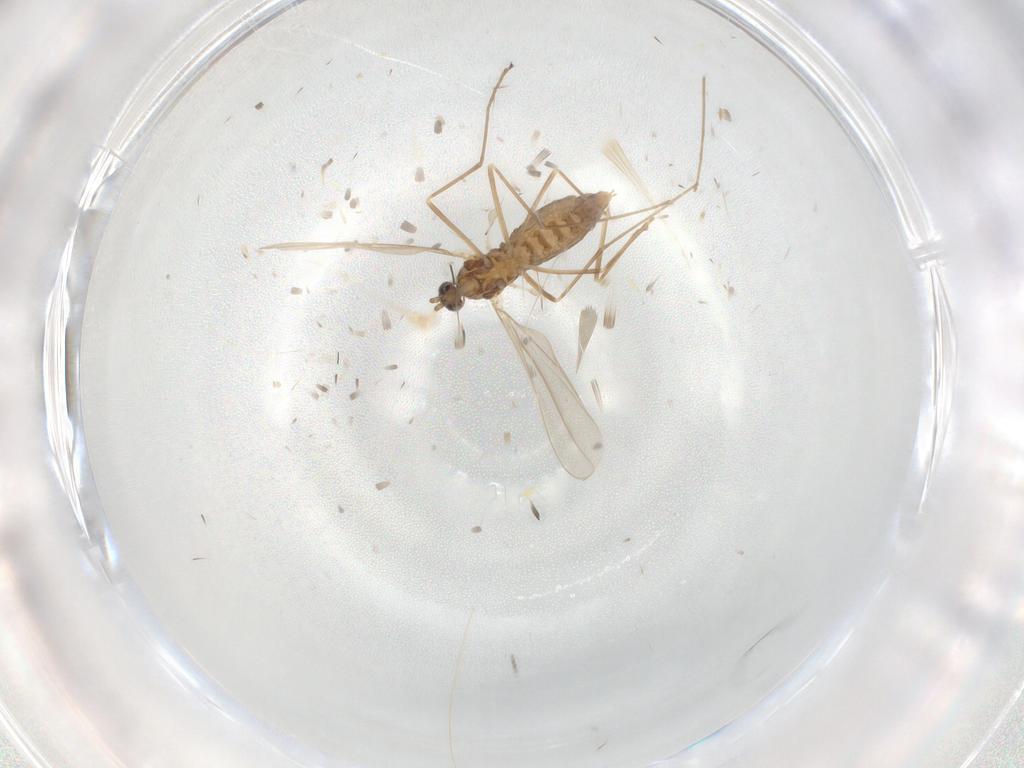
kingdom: Animalia
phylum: Arthropoda
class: Insecta
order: Diptera
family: Cecidomyiidae
